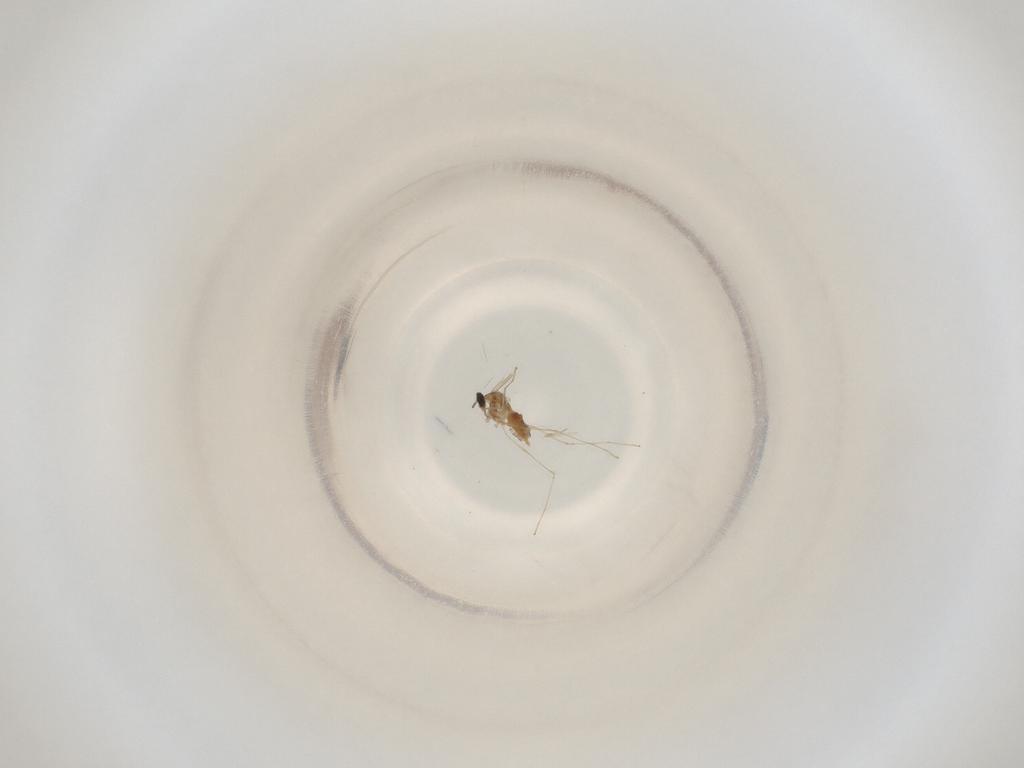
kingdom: Animalia
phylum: Arthropoda
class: Insecta
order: Diptera
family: Cecidomyiidae
